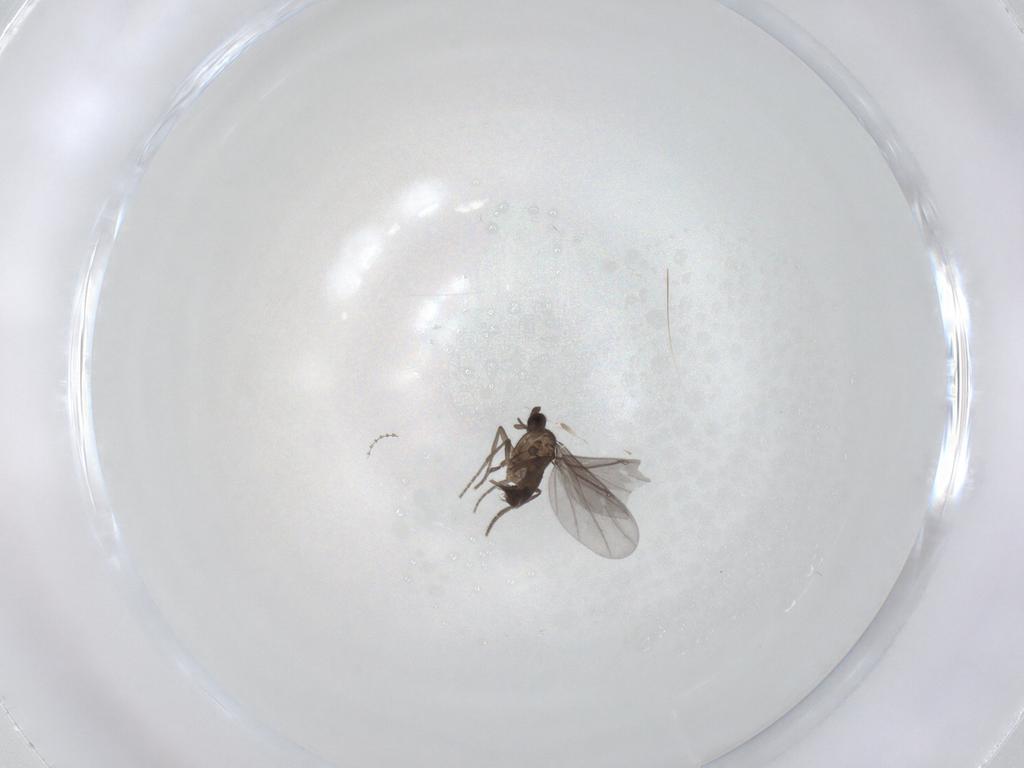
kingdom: Animalia
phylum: Arthropoda
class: Insecta
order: Diptera
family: Phoridae
